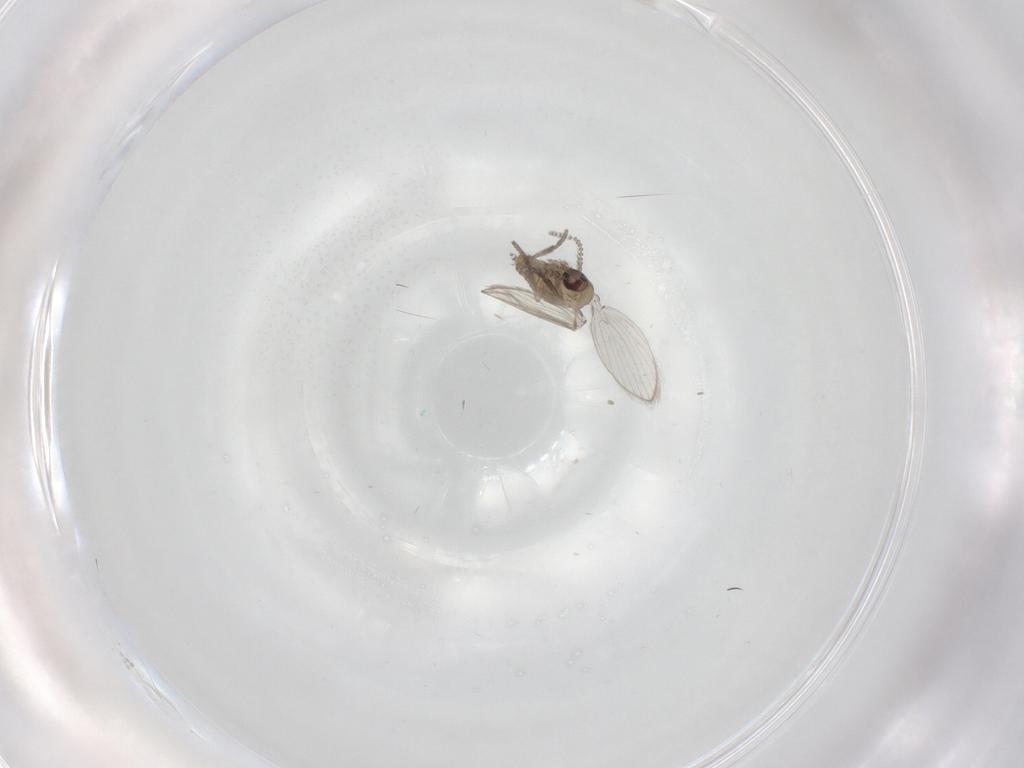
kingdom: Animalia
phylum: Arthropoda
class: Insecta
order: Diptera
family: Psychodidae
